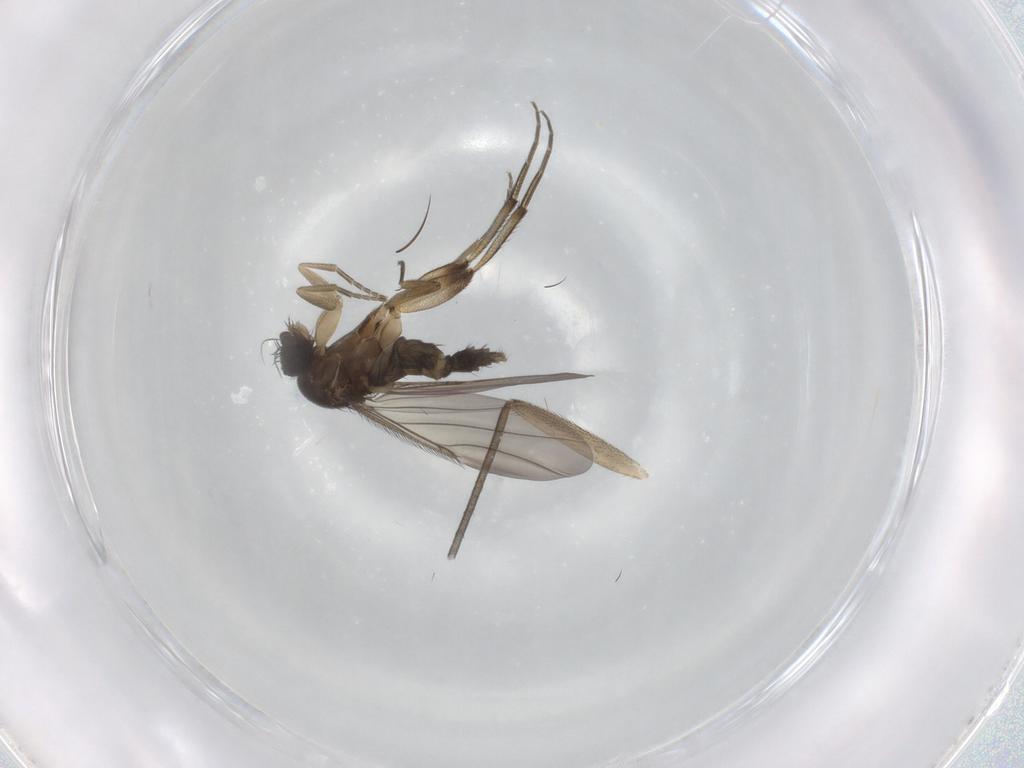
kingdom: Animalia
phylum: Arthropoda
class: Insecta
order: Diptera
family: Phoridae
